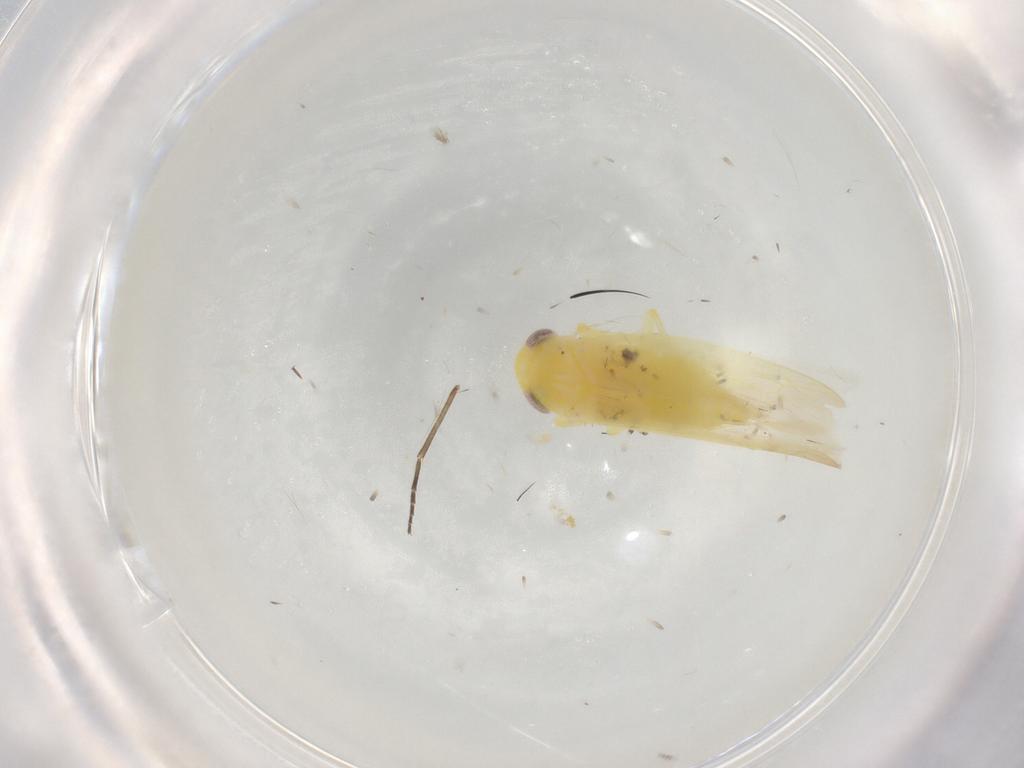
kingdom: Animalia
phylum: Arthropoda
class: Insecta
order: Hemiptera
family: Cicadellidae
